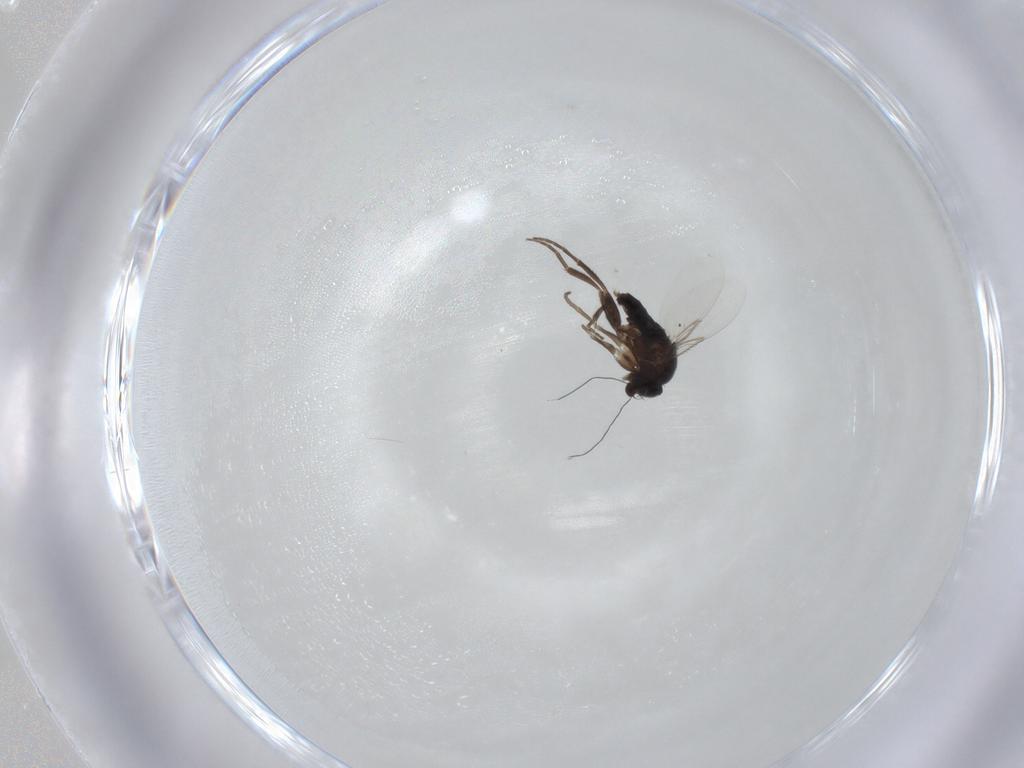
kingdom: Animalia
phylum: Arthropoda
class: Insecta
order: Diptera
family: Phoridae
